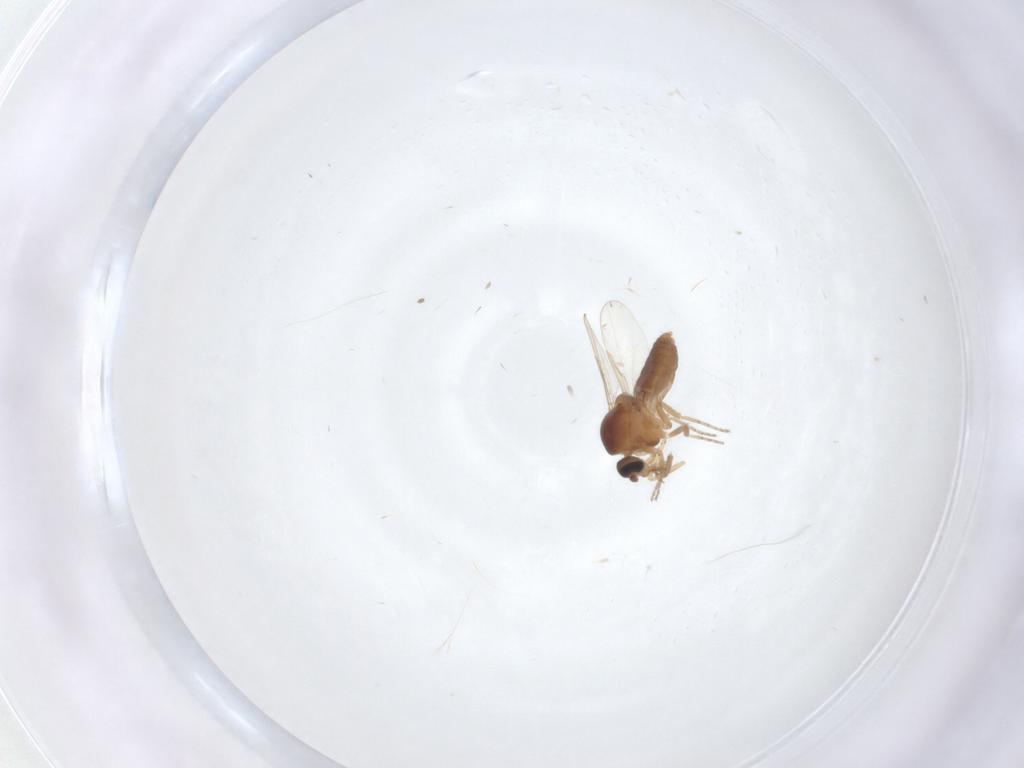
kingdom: Animalia
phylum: Arthropoda
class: Insecta
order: Diptera
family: Ceratopogonidae
